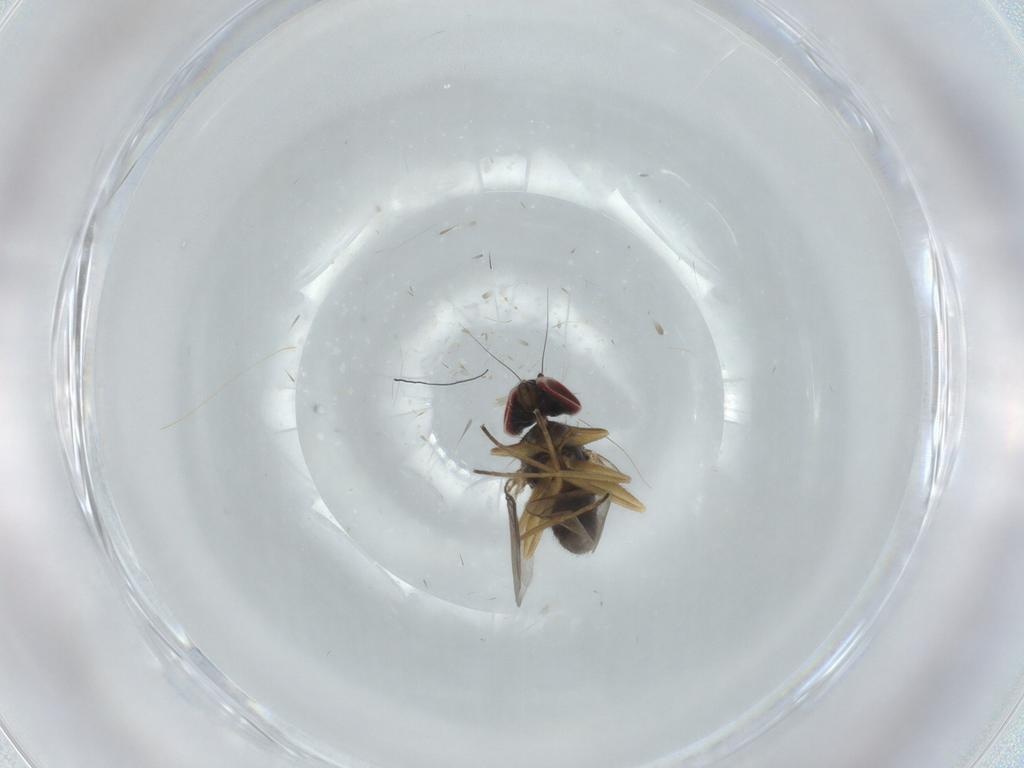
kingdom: Animalia
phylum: Arthropoda
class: Insecta
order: Diptera
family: Dolichopodidae
